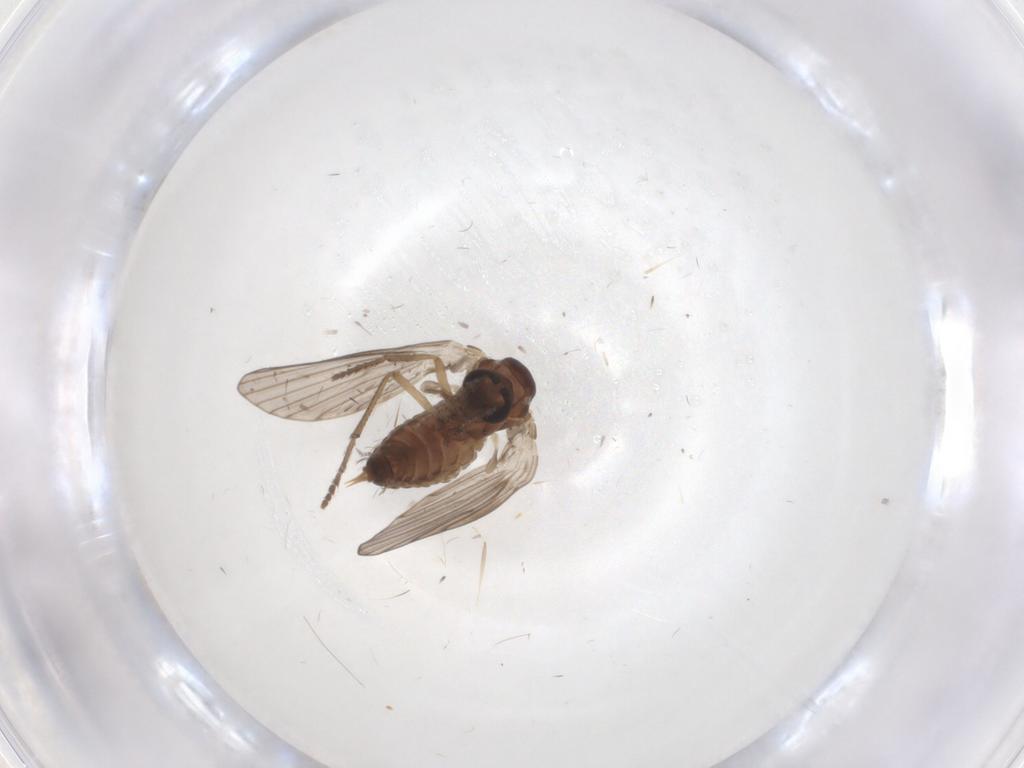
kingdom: Animalia
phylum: Arthropoda
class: Insecta
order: Diptera
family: Psychodidae
